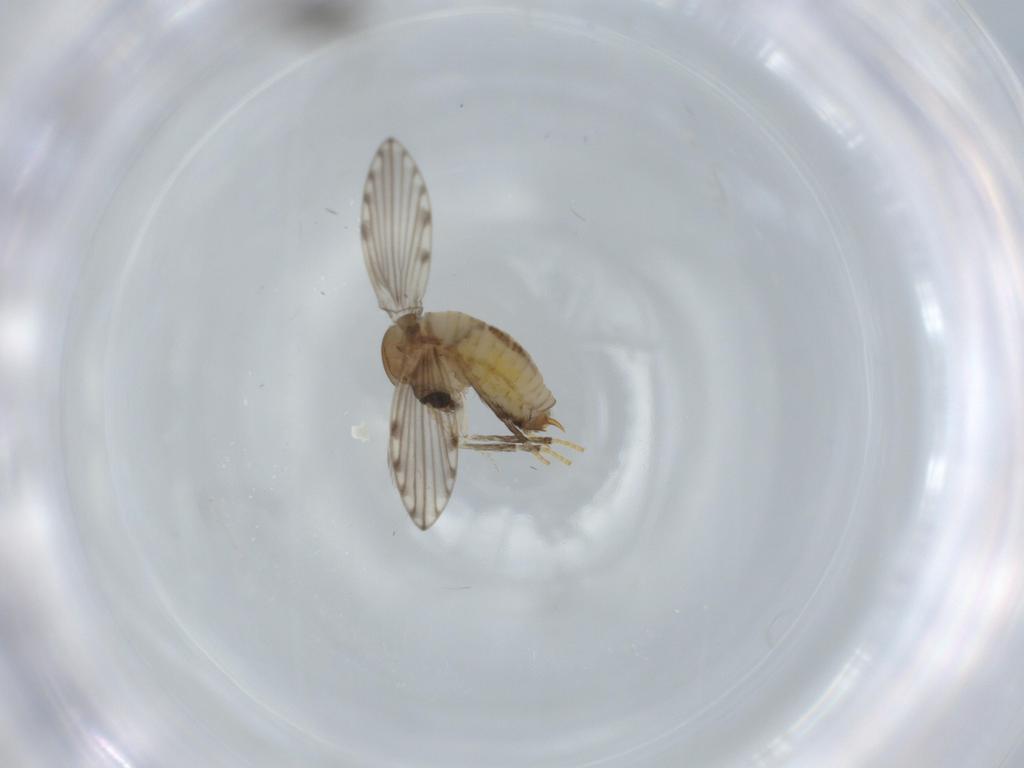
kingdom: Animalia
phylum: Arthropoda
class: Insecta
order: Diptera
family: Psychodidae
